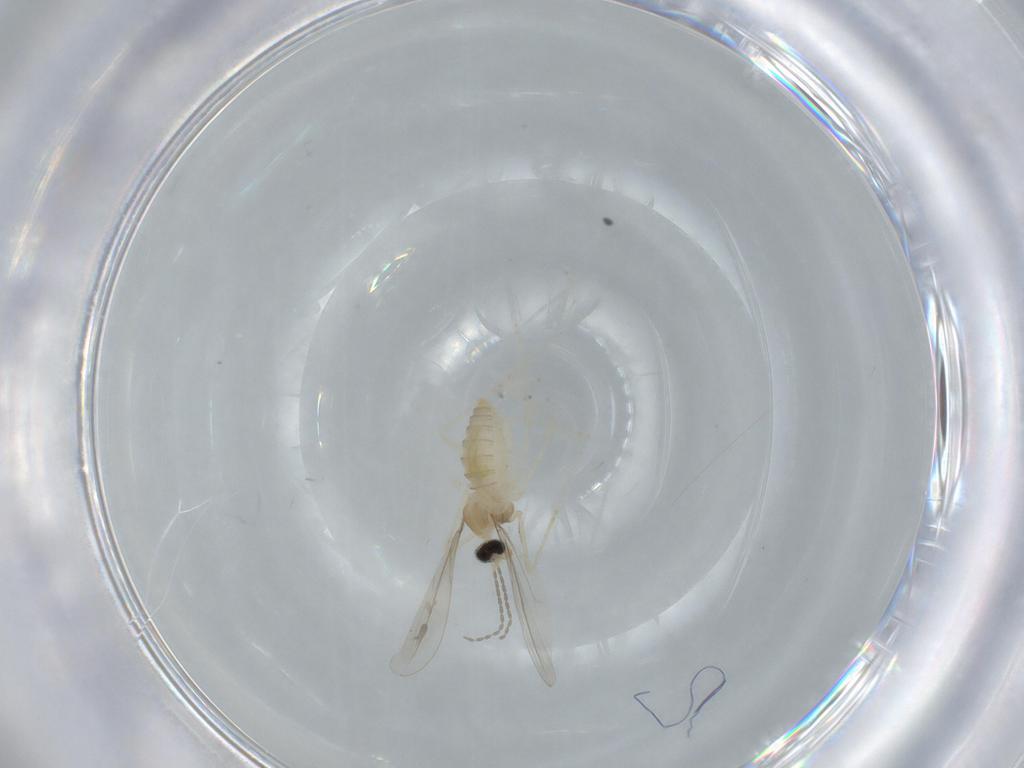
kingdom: Animalia
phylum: Arthropoda
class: Insecta
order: Diptera
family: Cecidomyiidae
